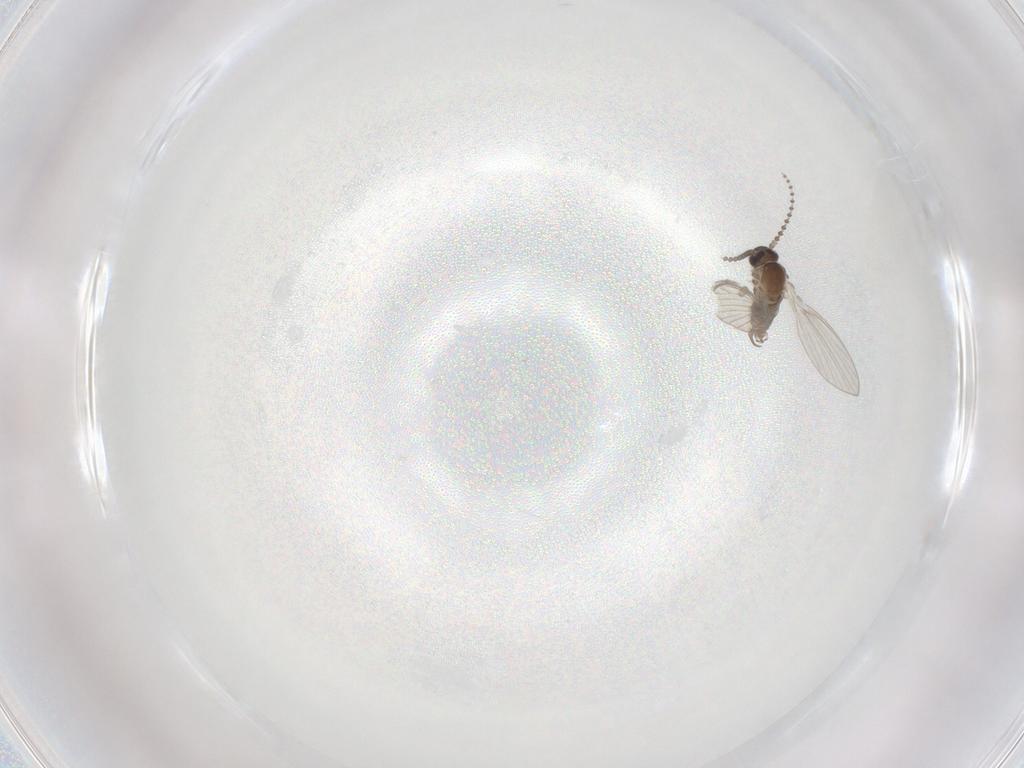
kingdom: Animalia
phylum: Arthropoda
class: Insecta
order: Diptera
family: Psychodidae
